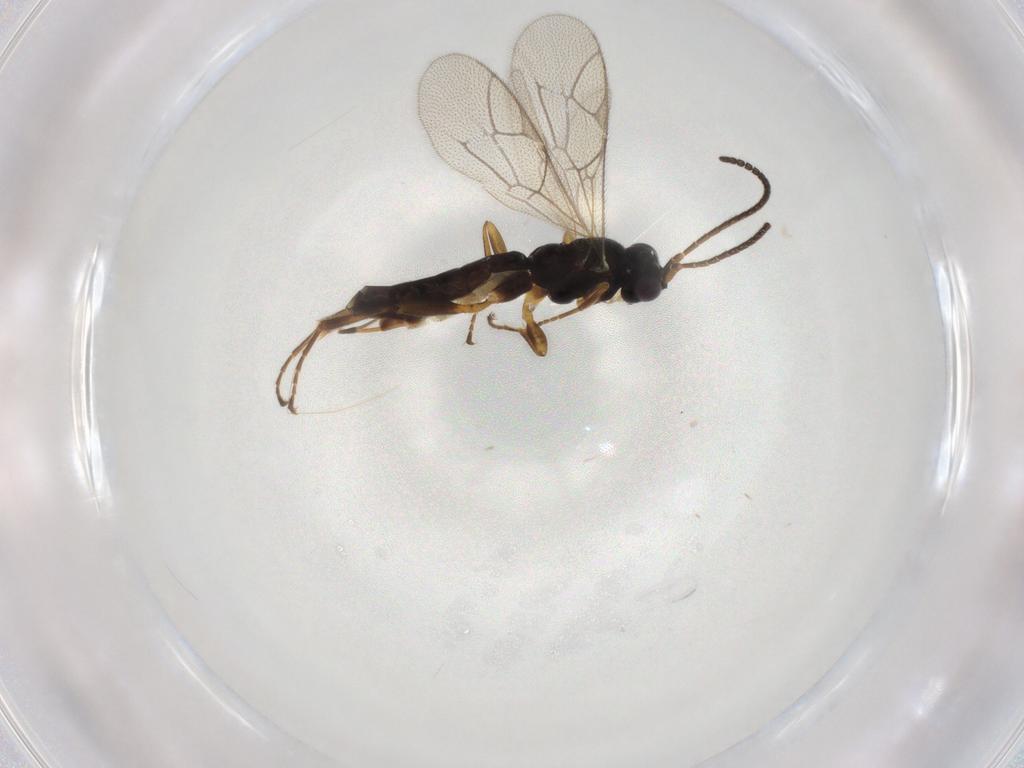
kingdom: Animalia
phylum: Arthropoda
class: Insecta
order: Hymenoptera
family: Ichneumonidae
